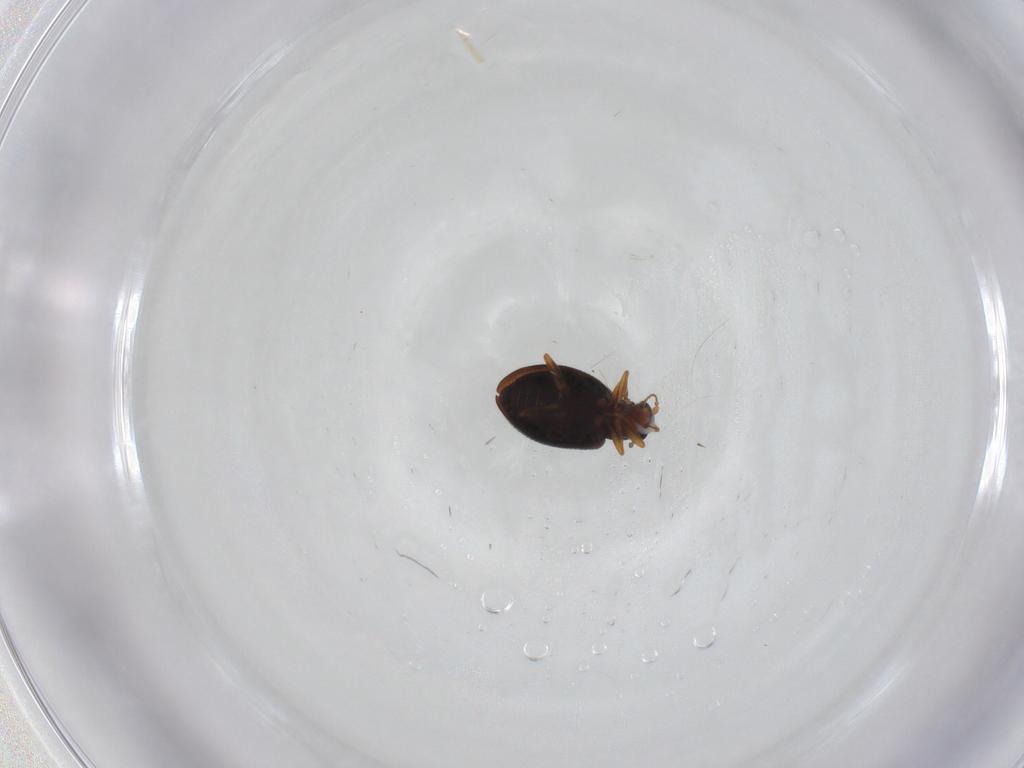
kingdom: Animalia
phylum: Arthropoda
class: Insecta
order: Coleoptera
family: Latridiidae
